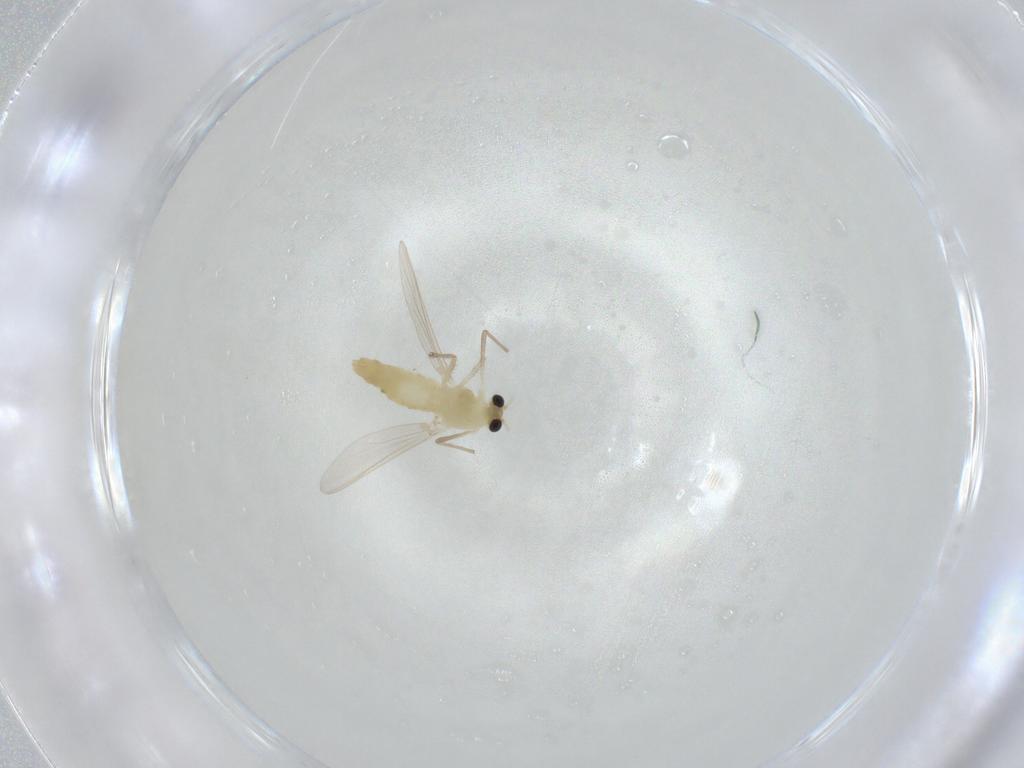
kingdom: Animalia
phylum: Arthropoda
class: Insecta
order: Diptera
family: Chironomidae
